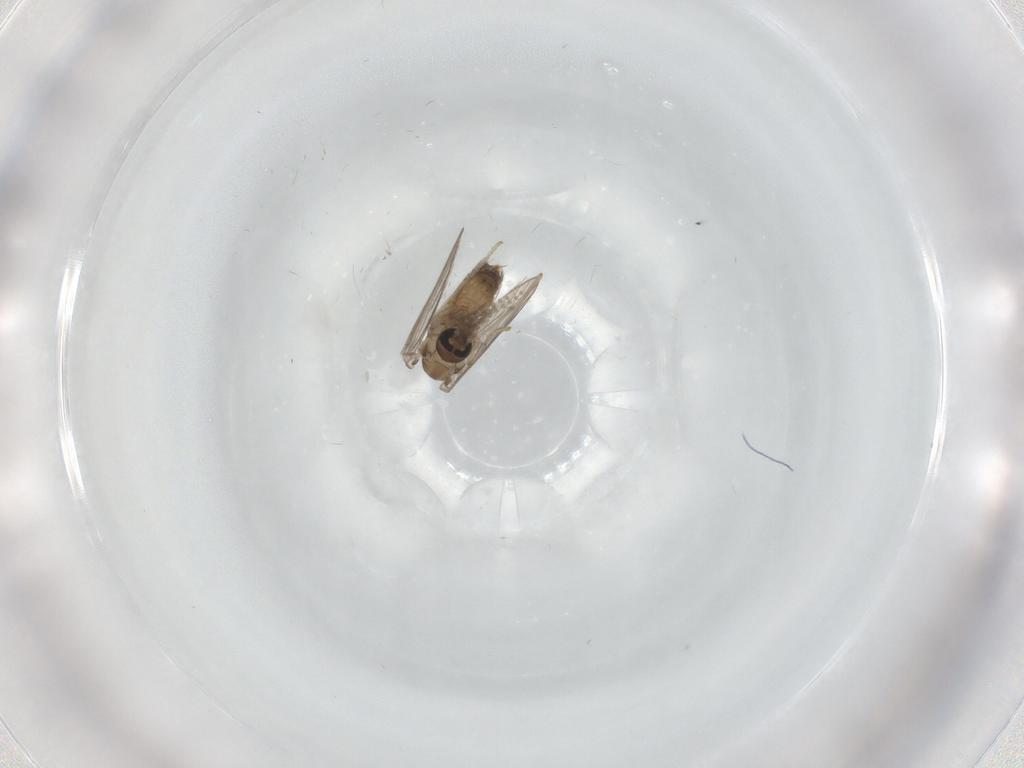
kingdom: Animalia
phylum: Arthropoda
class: Insecta
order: Diptera
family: Psychodidae
